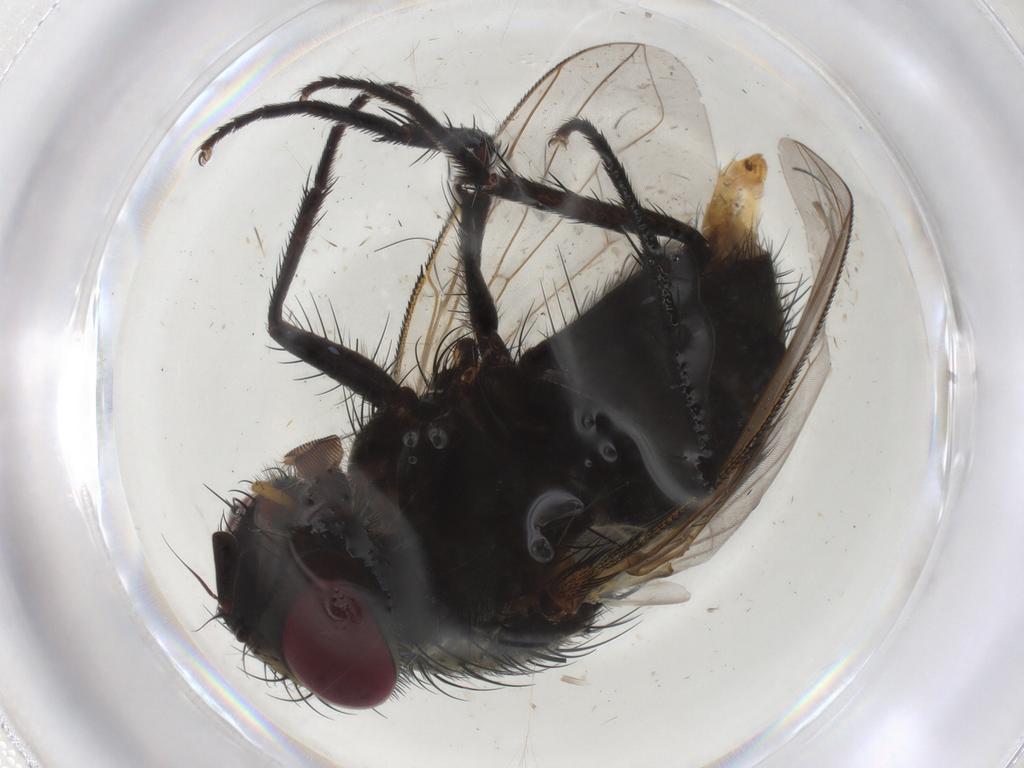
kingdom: Animalia
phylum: Arthropoda
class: Insecta
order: Diptera
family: Tachinidae
